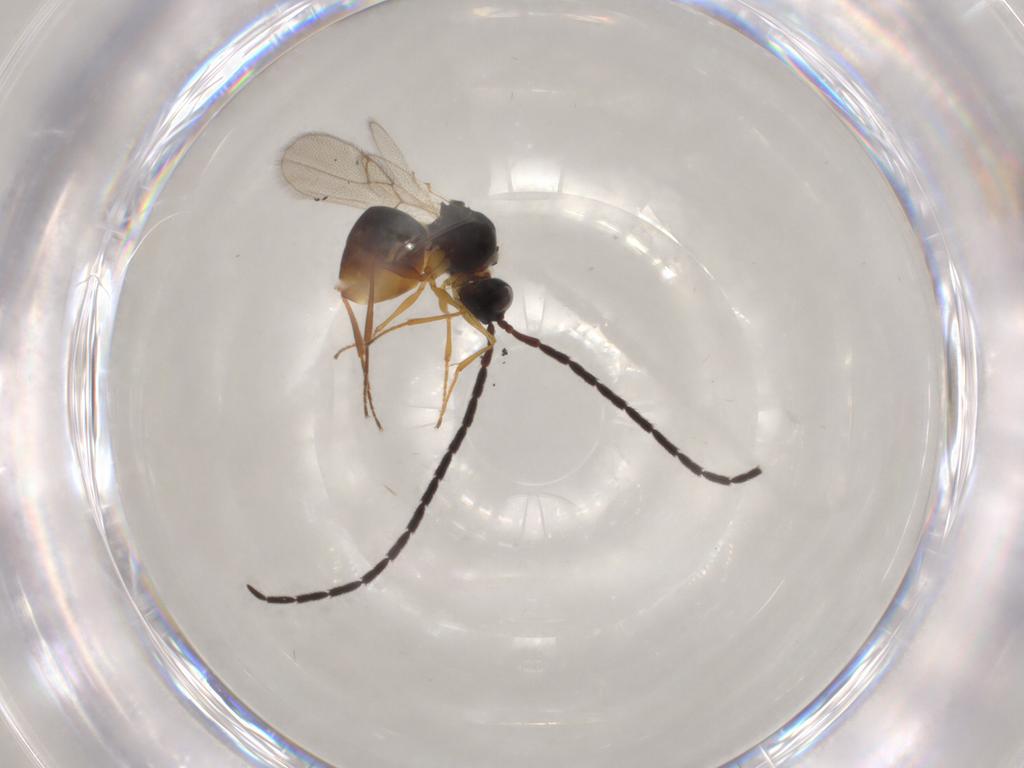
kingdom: Animalia
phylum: Arthropoda
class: Insecta
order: Hymenoptera
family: Figitidae
